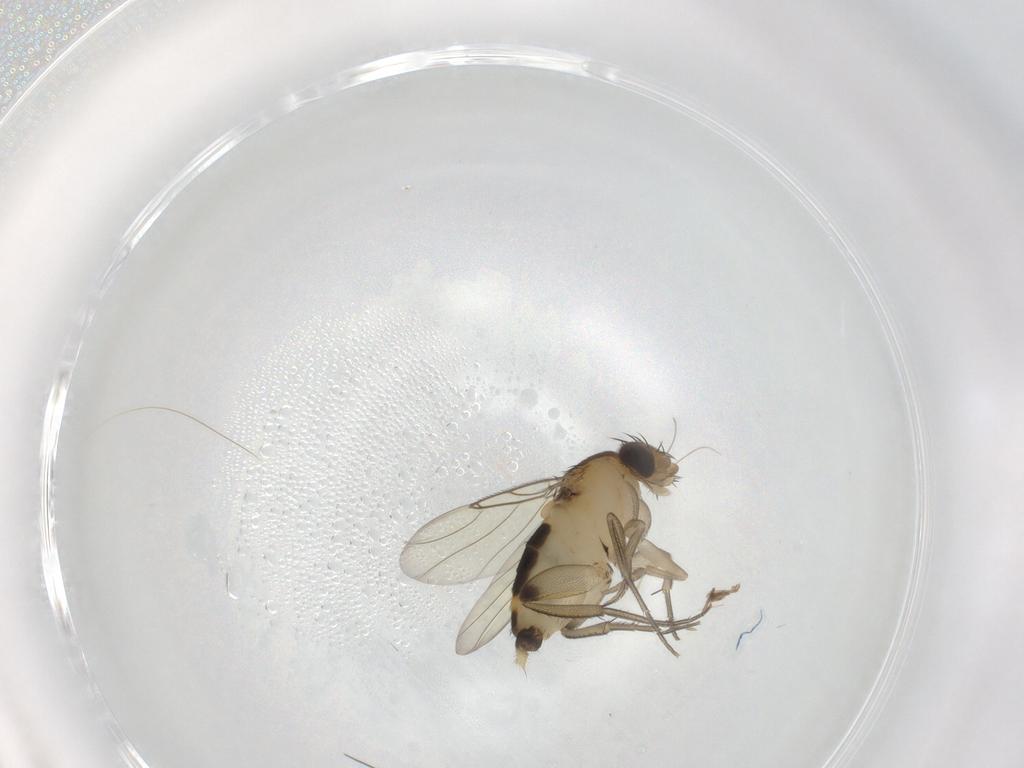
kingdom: Animalia
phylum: Arthropoda
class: Insecta
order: Diptera
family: Phoridae
